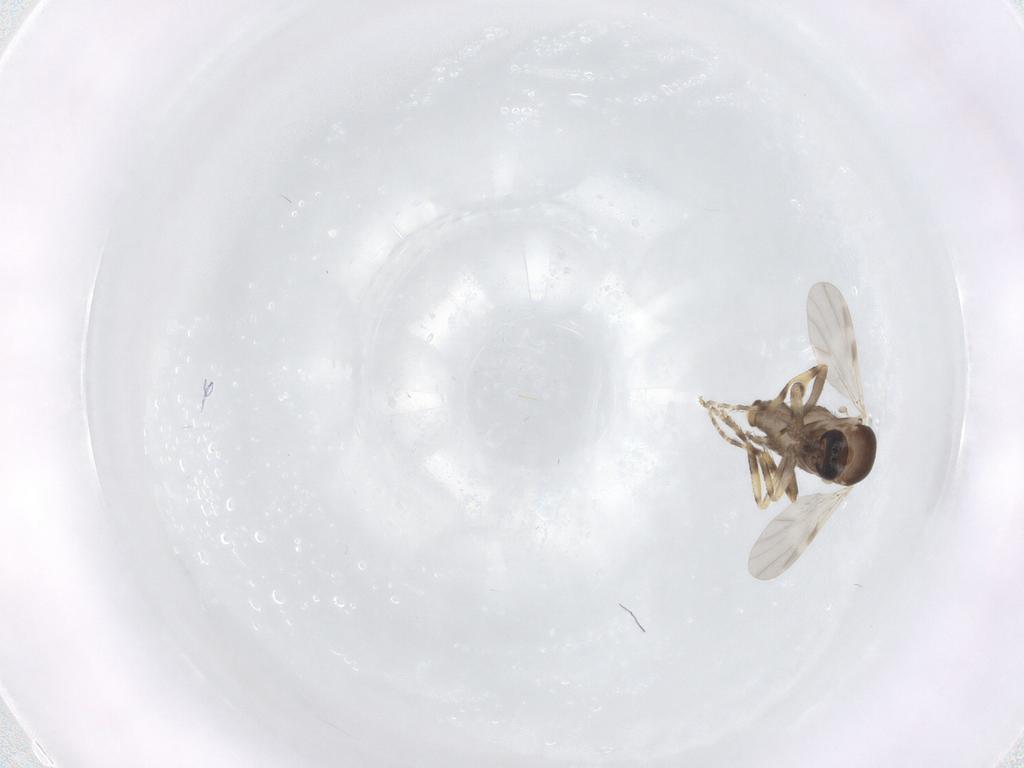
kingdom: Animalia
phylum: Arthropoda
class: Insecta
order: Diptera
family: Ceratopogonidae
